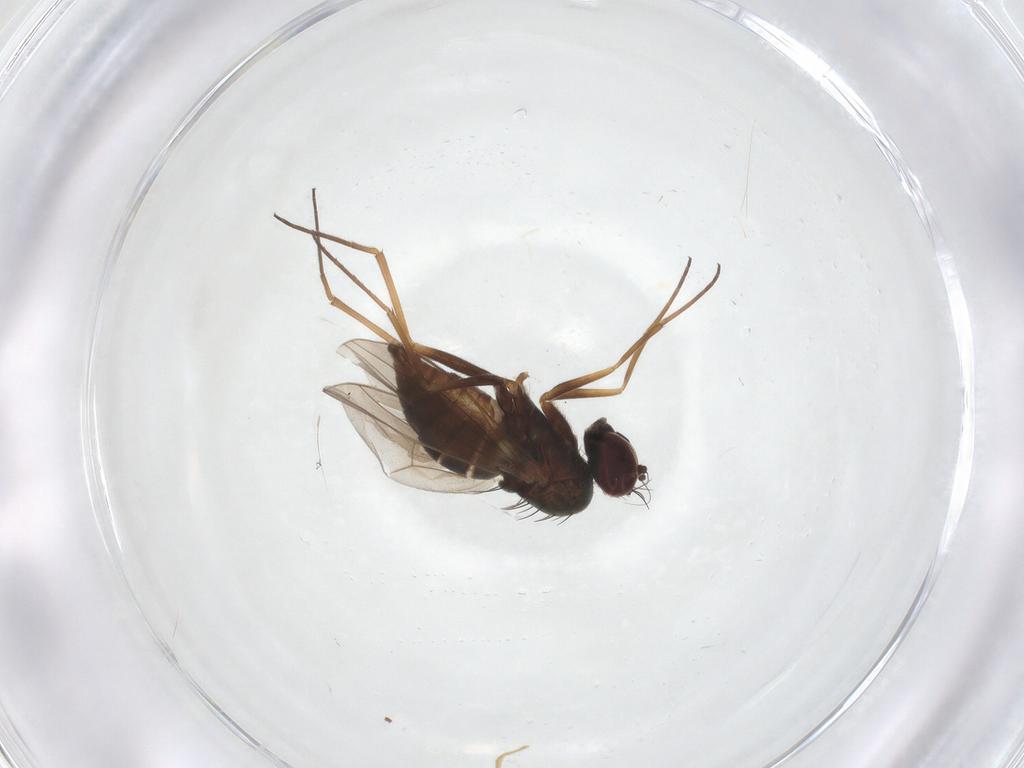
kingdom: Animalia
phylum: Arthropoda
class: Insecta
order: Diptera
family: Dolichopodidae
